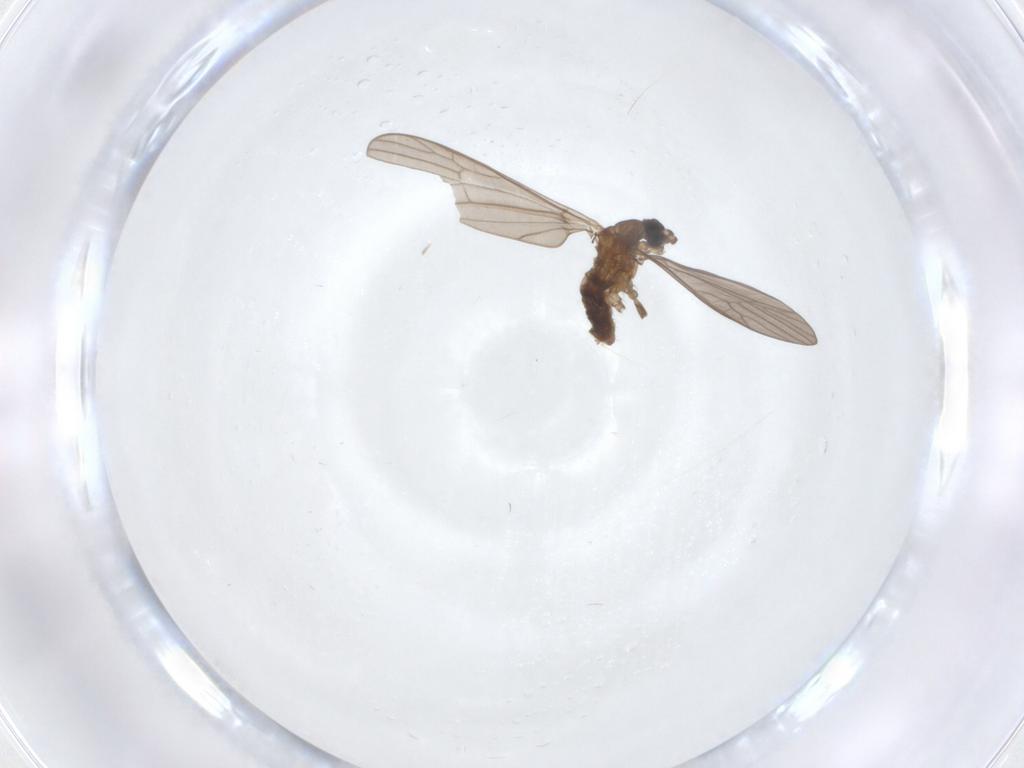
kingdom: Animalia
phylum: Arthropoda
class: Insecta
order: Diptera
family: Limoniidae
